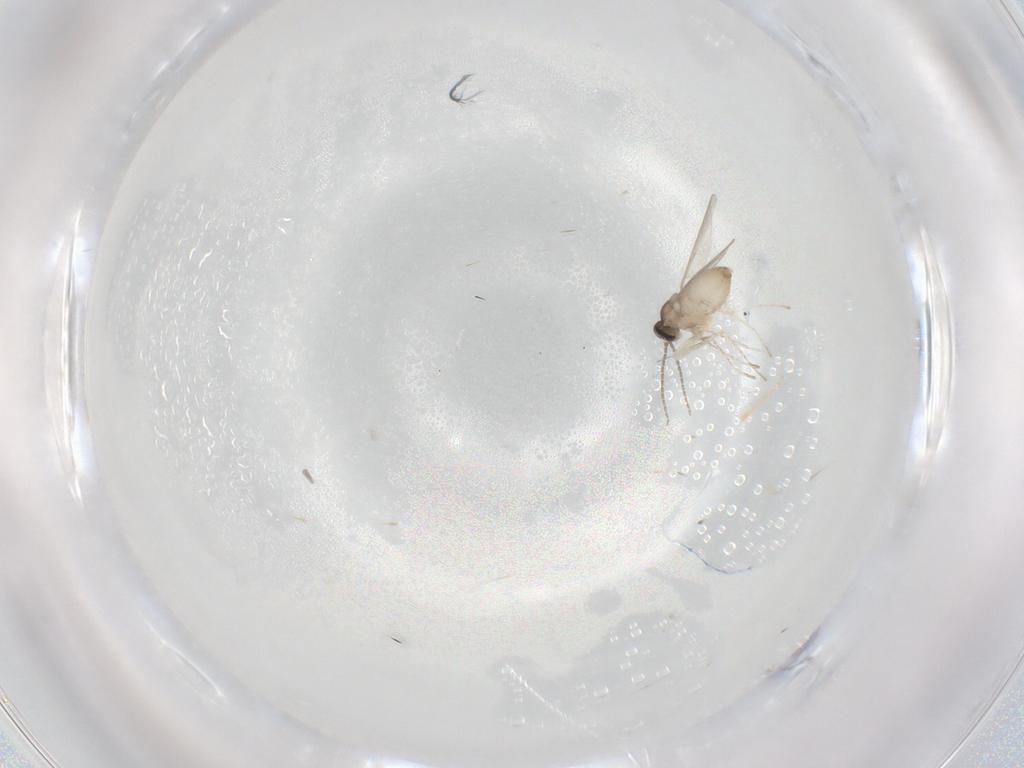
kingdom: Animalia
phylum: Arthropoda
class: Insecta
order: Diptera
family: Cecidomyiidae
